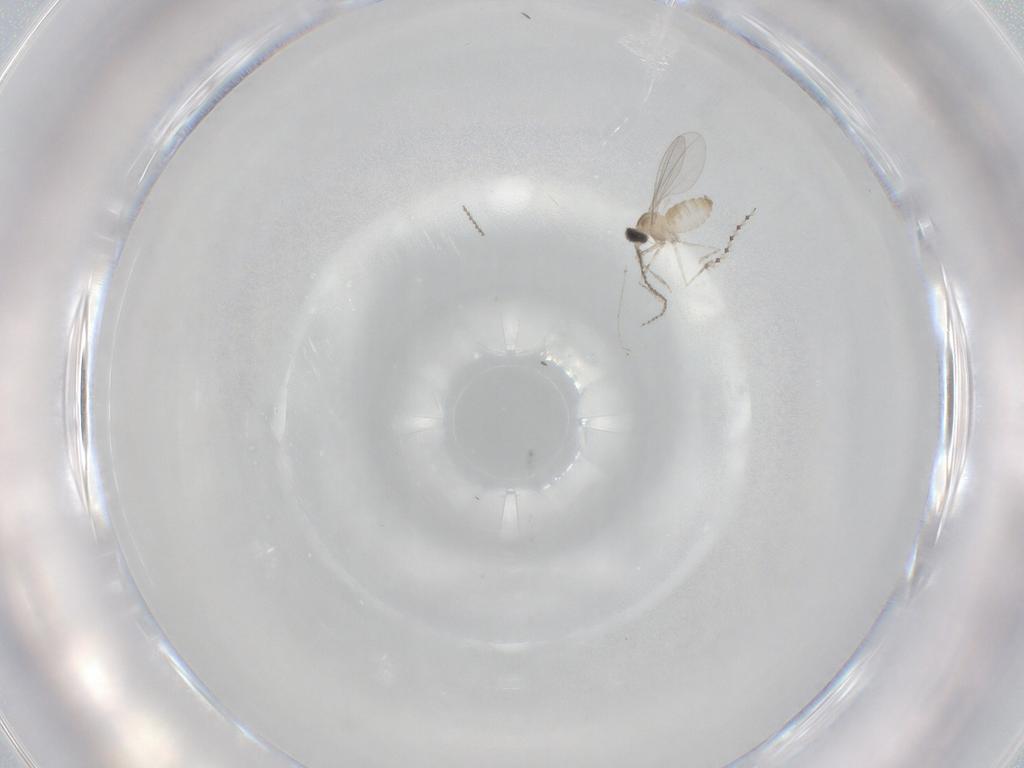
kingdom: Animalia
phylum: Arthropoda
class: Insecta
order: Diptera
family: Cecidomyiidae
